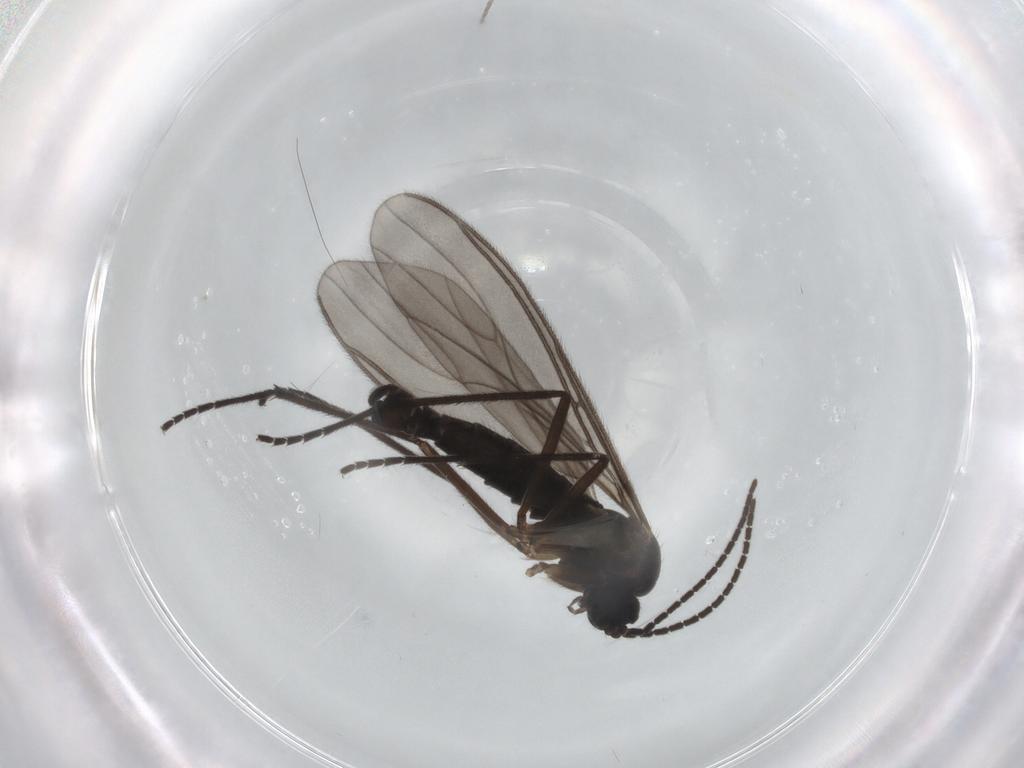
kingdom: Animalia
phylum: Arthropoda
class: Insecta
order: Diptera
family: Sciaridae
